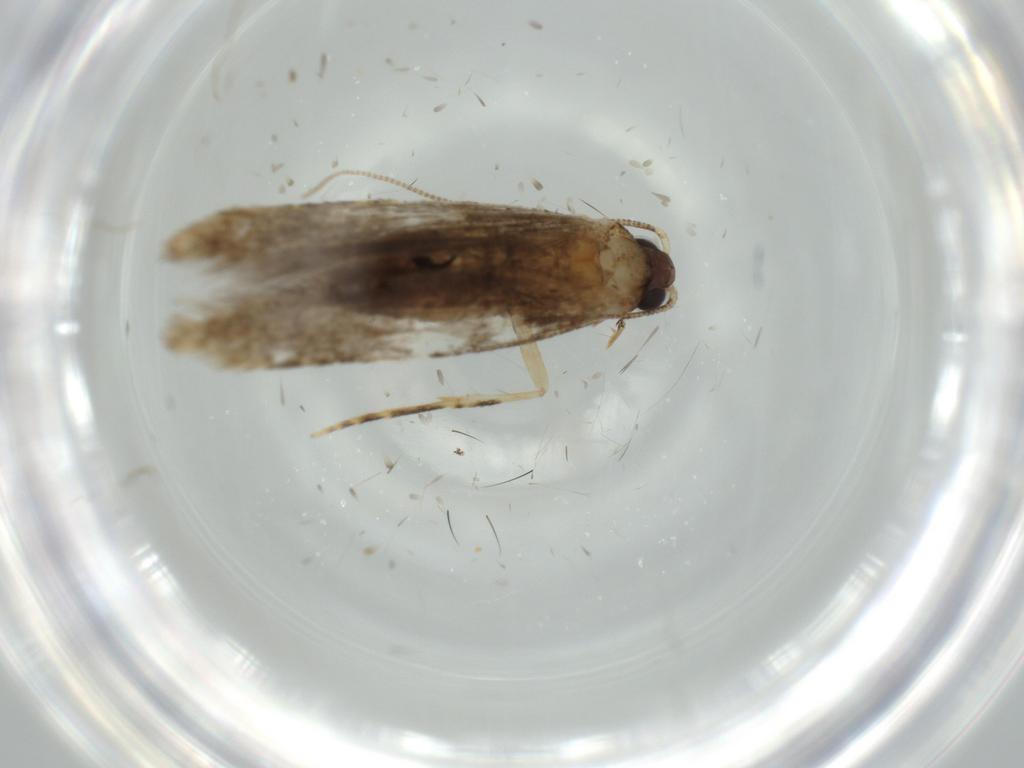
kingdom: Animalia
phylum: Arthropoda
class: Insecta
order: Lepidoptera
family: Tineidae
